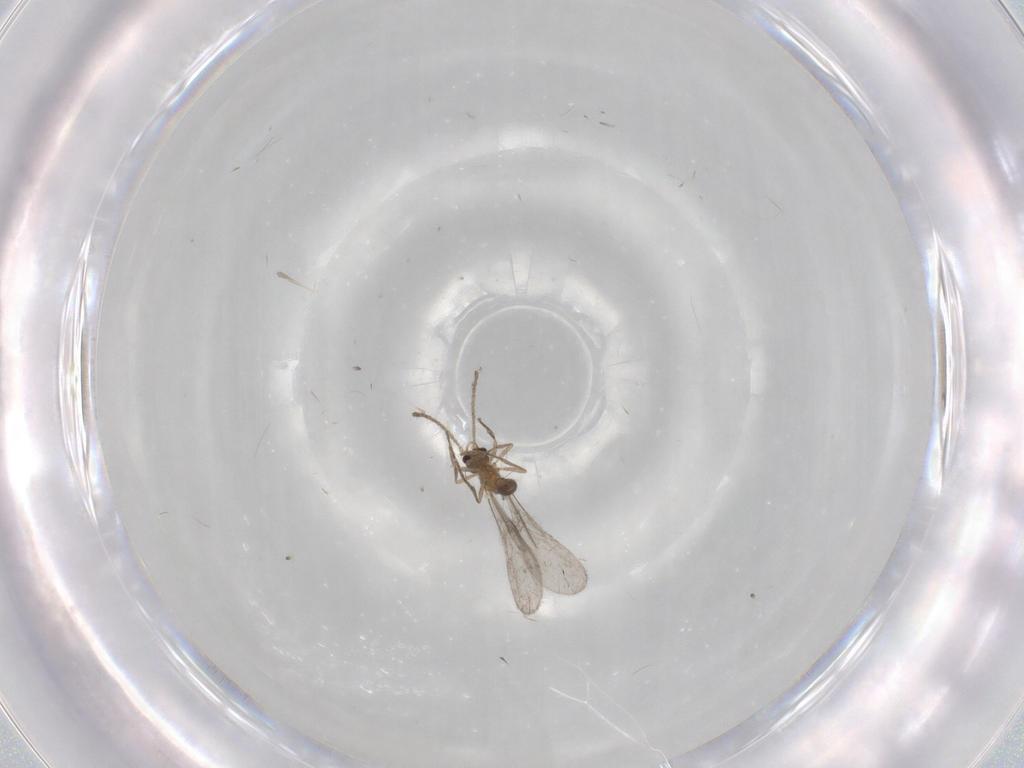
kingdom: Animalia
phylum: Arthropoda
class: Insecta
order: Hymenoptera
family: Formicidae
